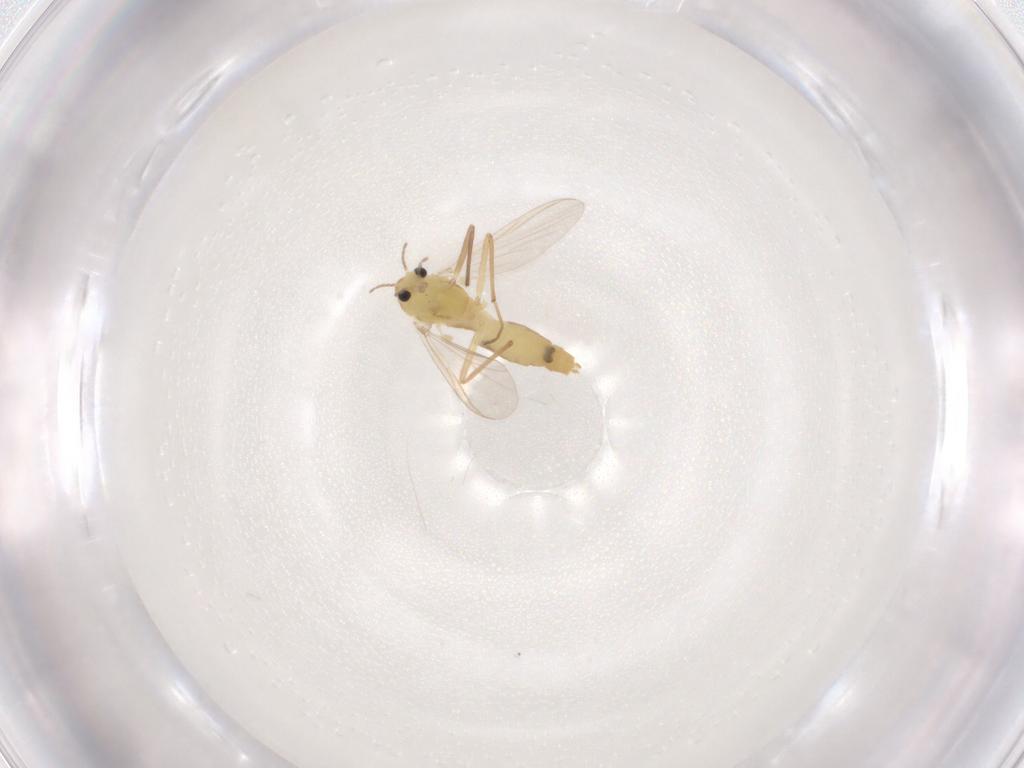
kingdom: Animalia
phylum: Arthropoda
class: Insecta
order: Diptera
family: Chironomidae
